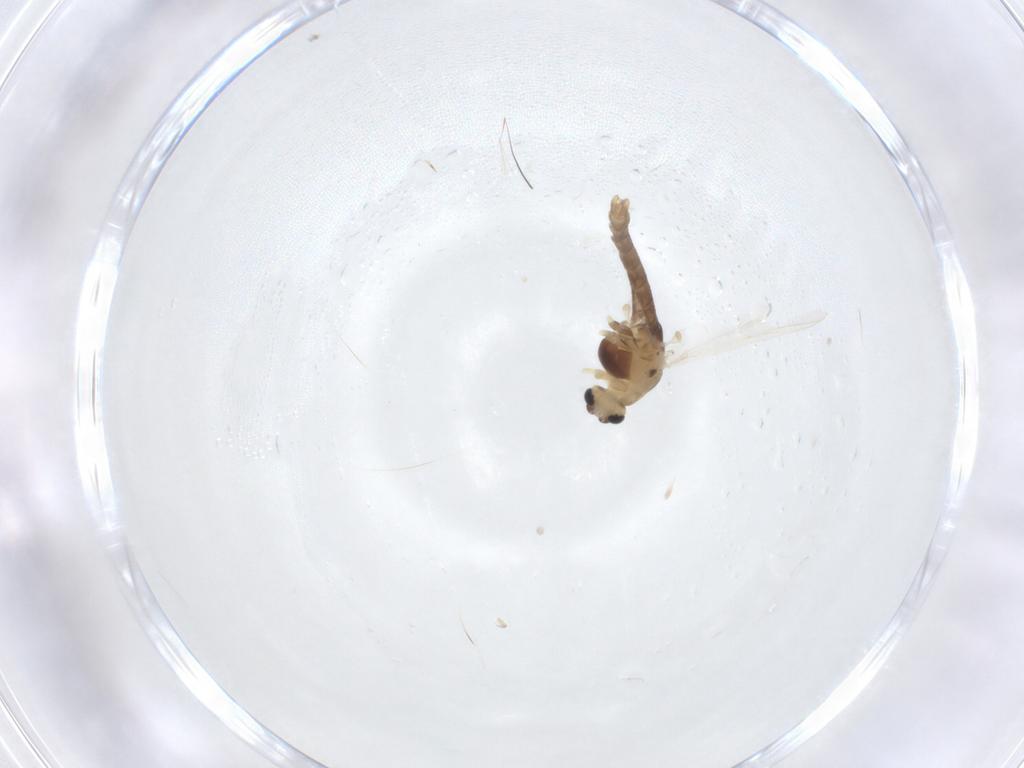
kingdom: Animalia
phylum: Arthropoda
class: Insecta
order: Diptera
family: Chironomidae
